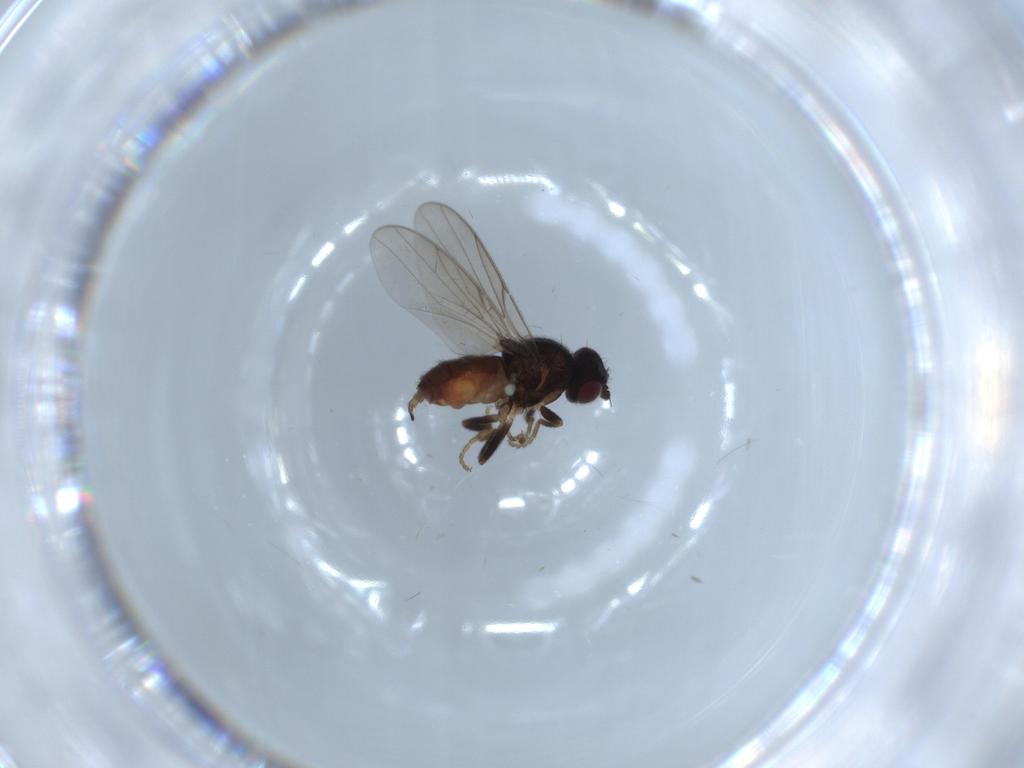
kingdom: Animalia
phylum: Arthropoda
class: Insecta
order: Diptera
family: Chloropidae
